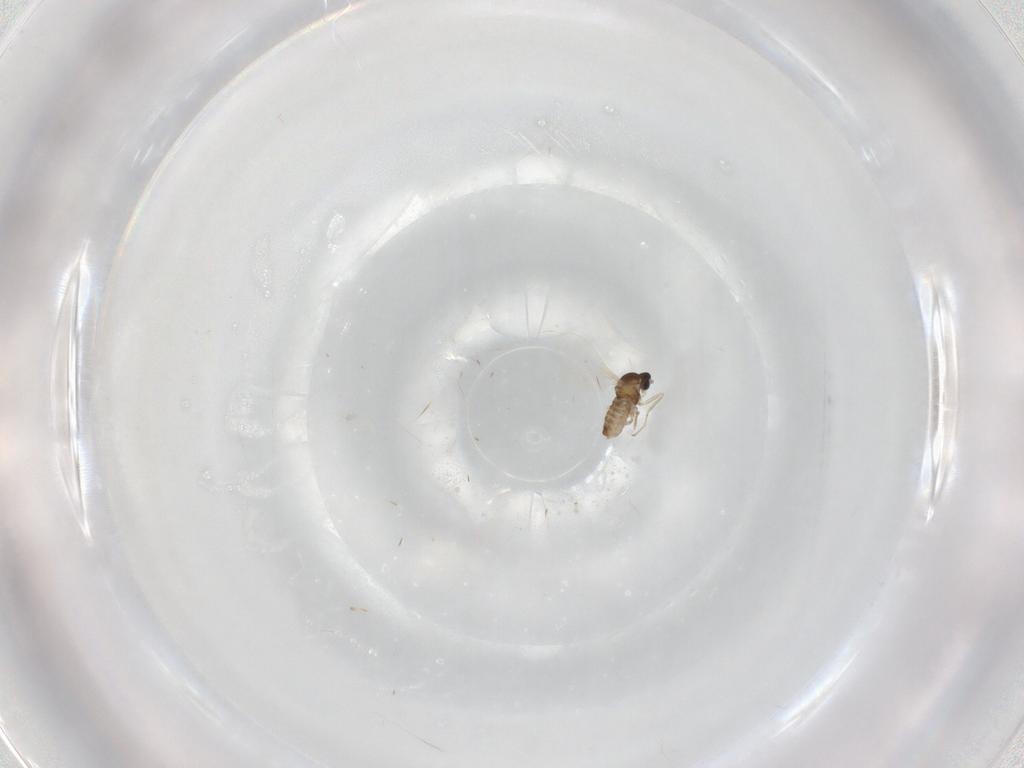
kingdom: Animalia
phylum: Arthropoda
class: Insecta
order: Diptera
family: Cecidomyiidae
